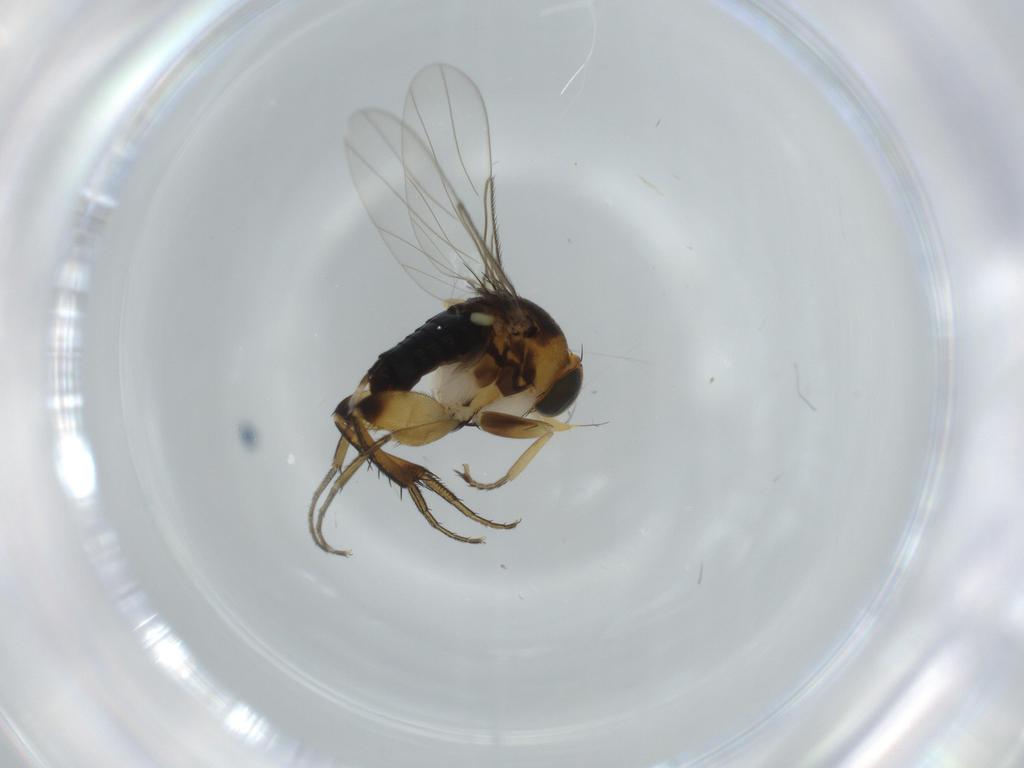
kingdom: Animalia
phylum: Arthropoda
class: Insecta
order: Diptera
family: Phoridae
